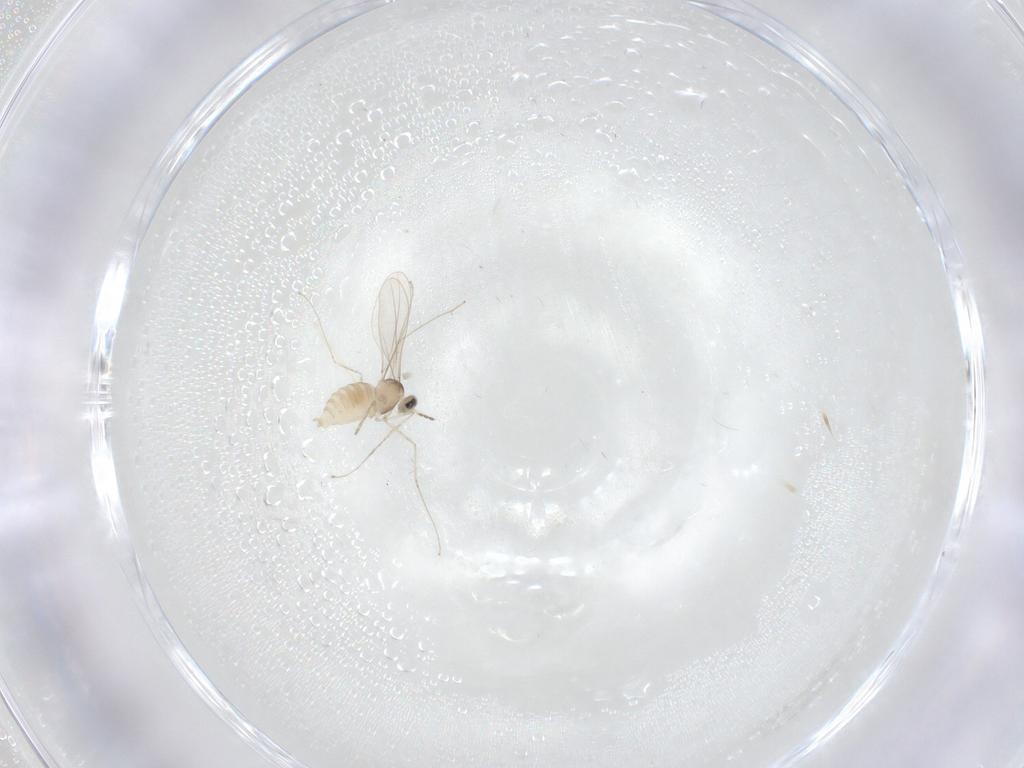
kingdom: Animalia
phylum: Arthropoda
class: Insecta
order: Diptera
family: Cecidomyiidae
